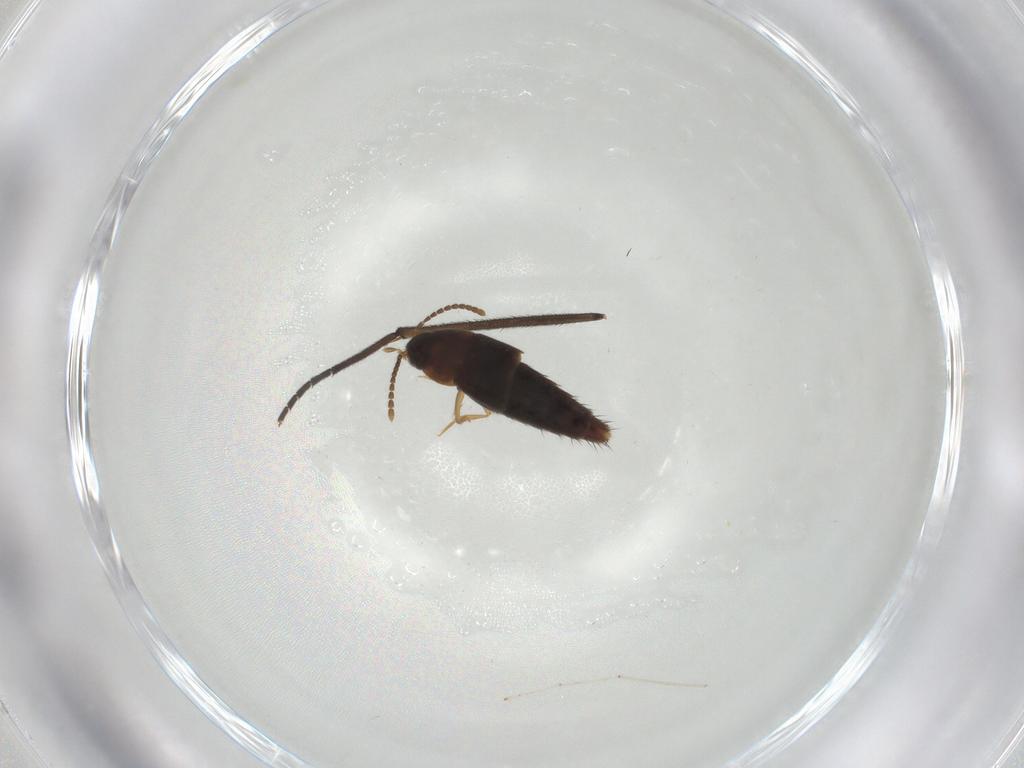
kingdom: Animalia
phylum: Arthropoda
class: Insecta
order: Coleoptera
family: Staphylinidae
